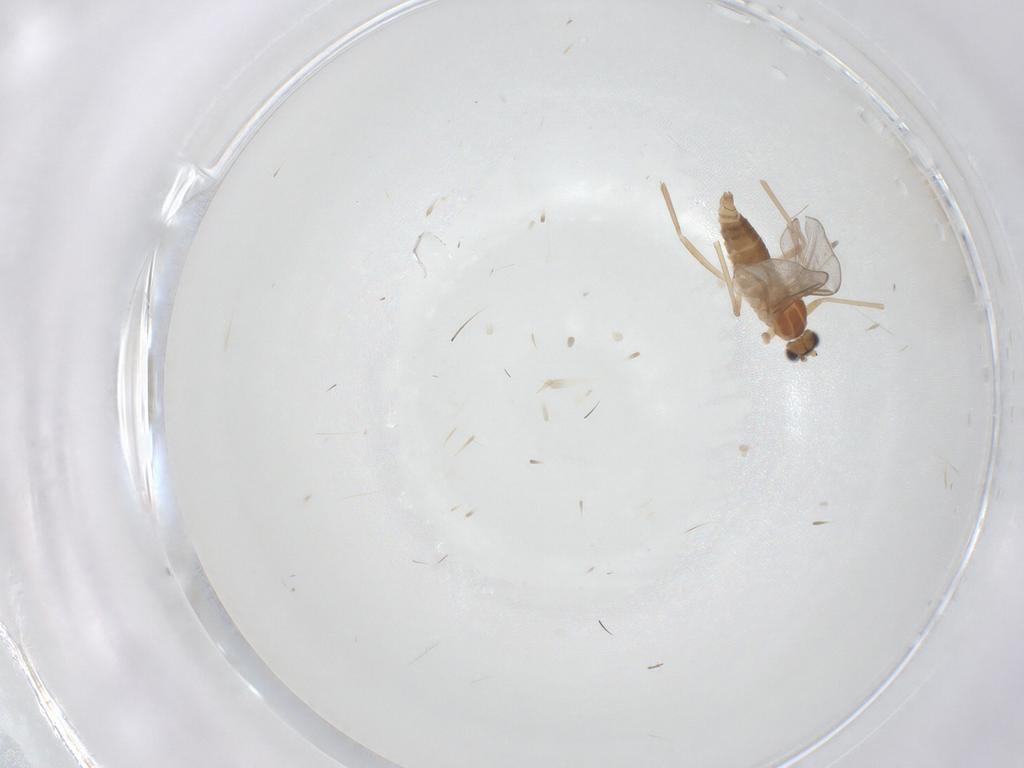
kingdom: Animalia
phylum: Arthropoda
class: Insecta
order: Diptera
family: Cecidomyiidae
